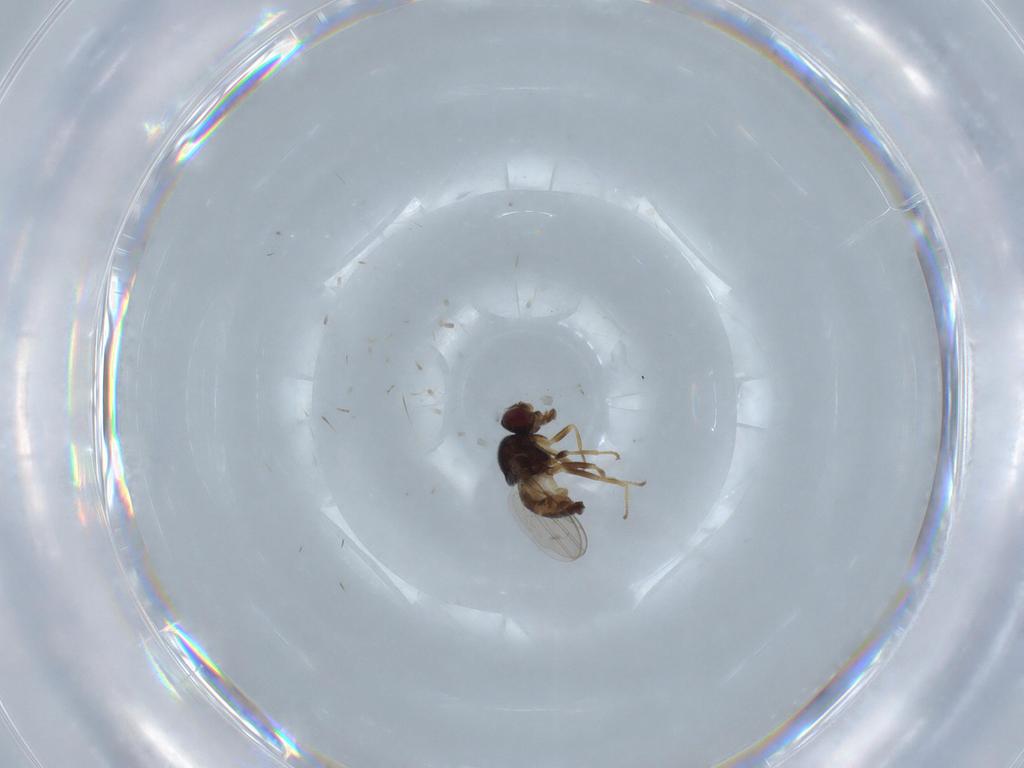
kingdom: Animalia
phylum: Arthropoda
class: Insecta
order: Diptera
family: Chloropidae
